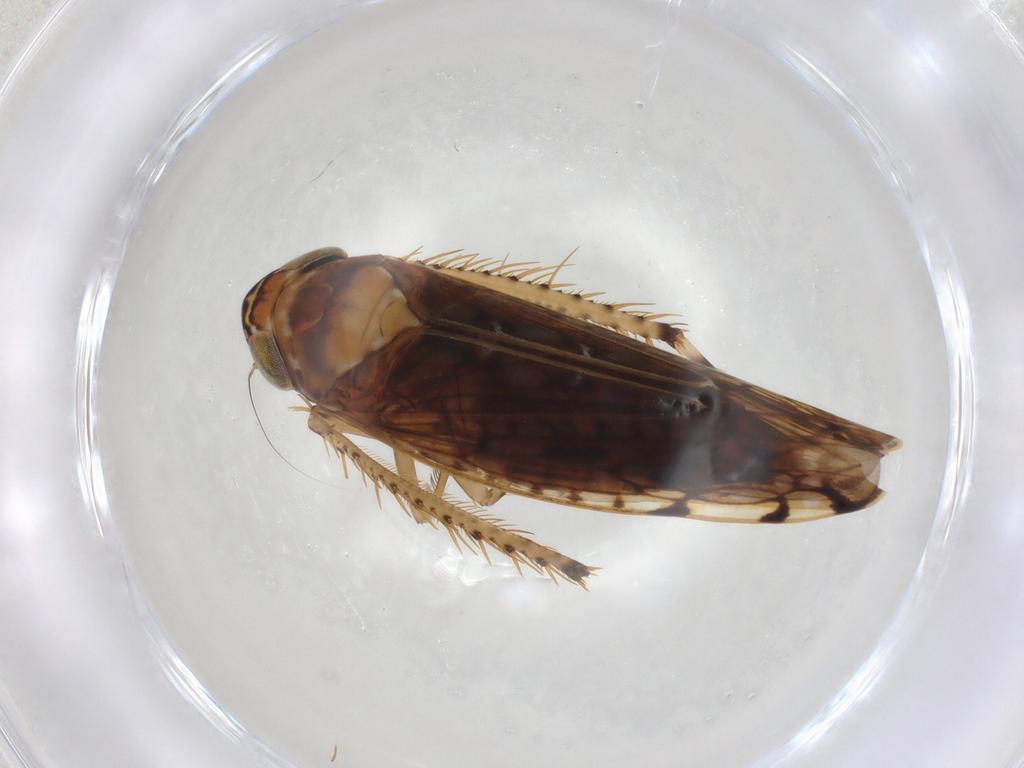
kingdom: Animalia
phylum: Arthropoda
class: Insecta
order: Hemiptera
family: Cicadellidae
